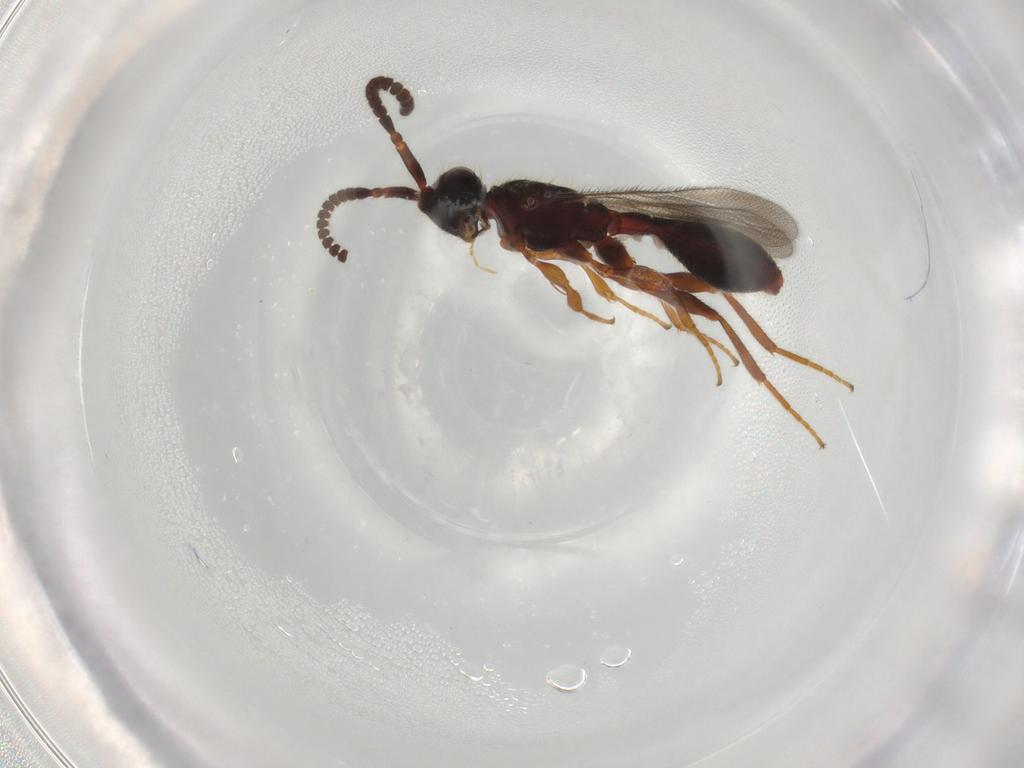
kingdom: Animalia
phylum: Arthropoda
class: Insecta
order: Hymenoptera
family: Diapriidae
